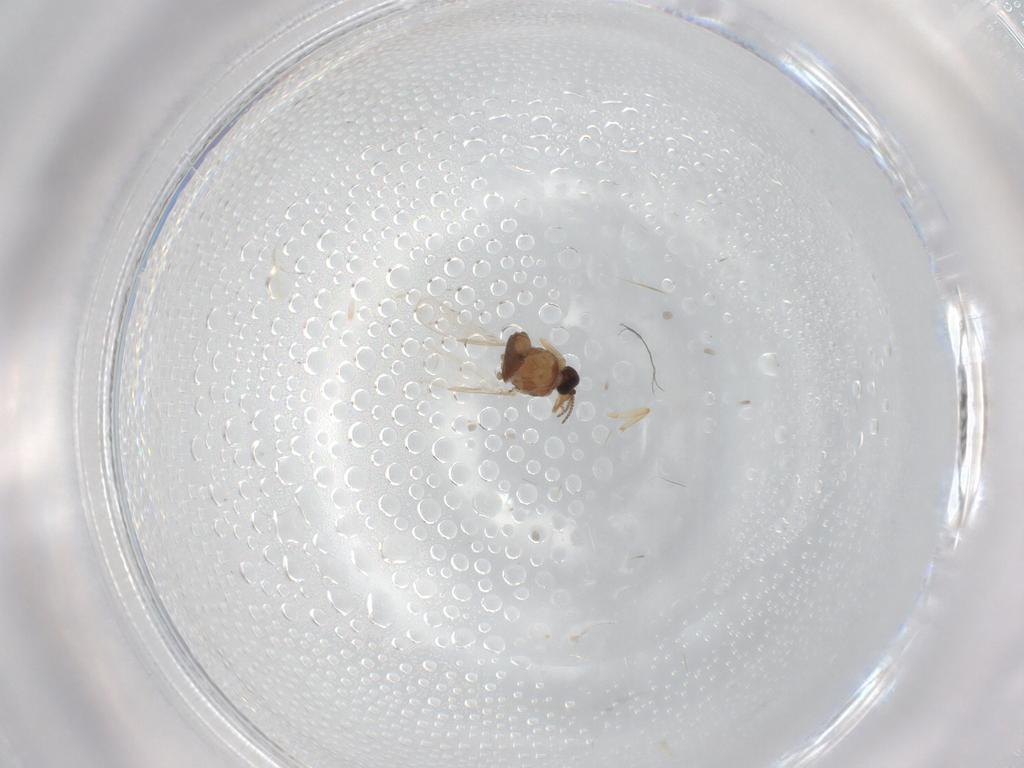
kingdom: Animalia
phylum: Arthropoda
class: Insecta
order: Diptera
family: Ceratopogonidae
